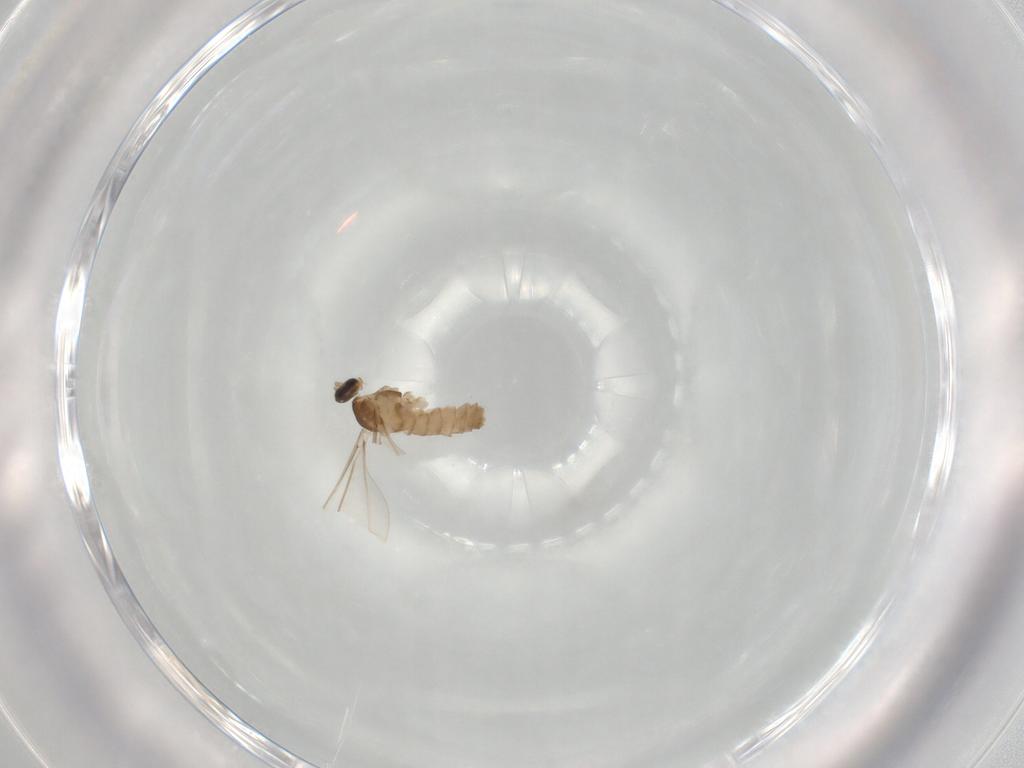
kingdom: Animalia
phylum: Arthropoda
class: Insecta
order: Diptera
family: Cecidomyiidae
